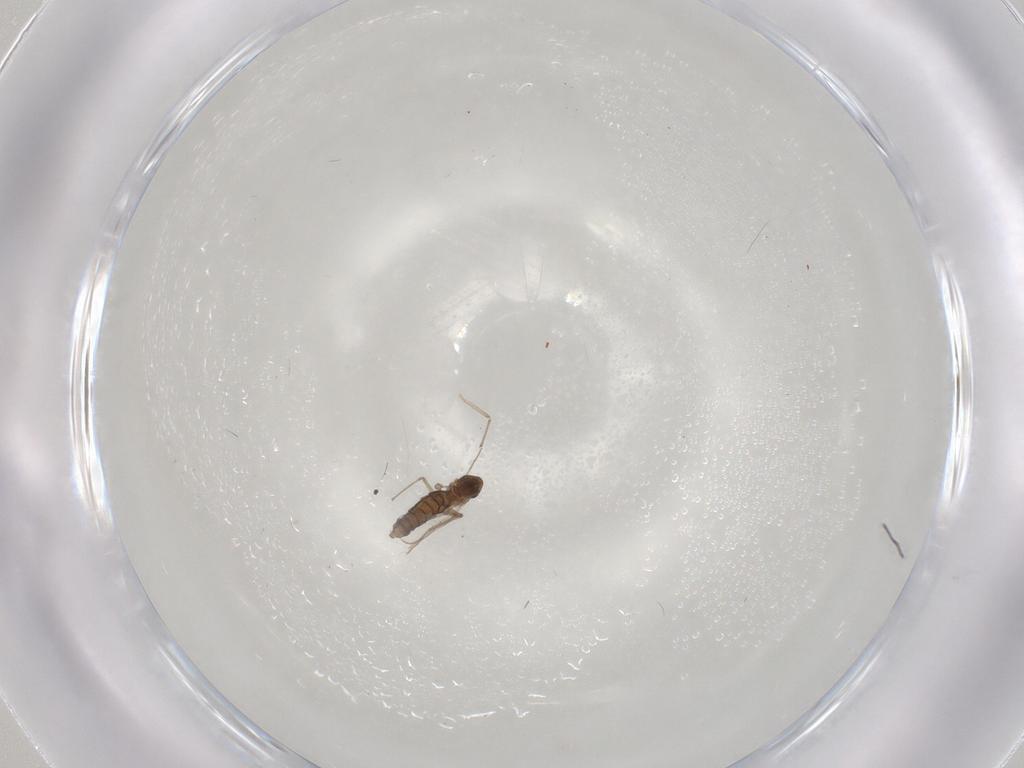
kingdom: Animalia
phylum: Arthropoda
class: Insecta
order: Diptera
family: Chironomidae
